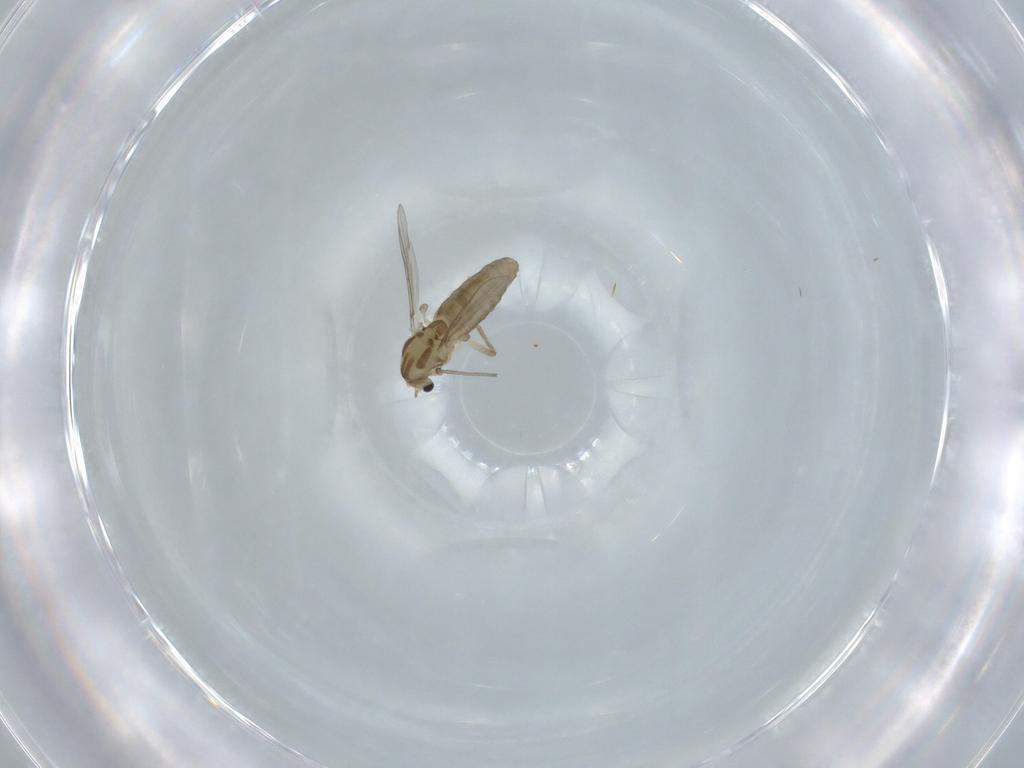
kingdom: Animalia
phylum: Arthropoda
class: Insecta
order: Diptera
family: Chironomidae
